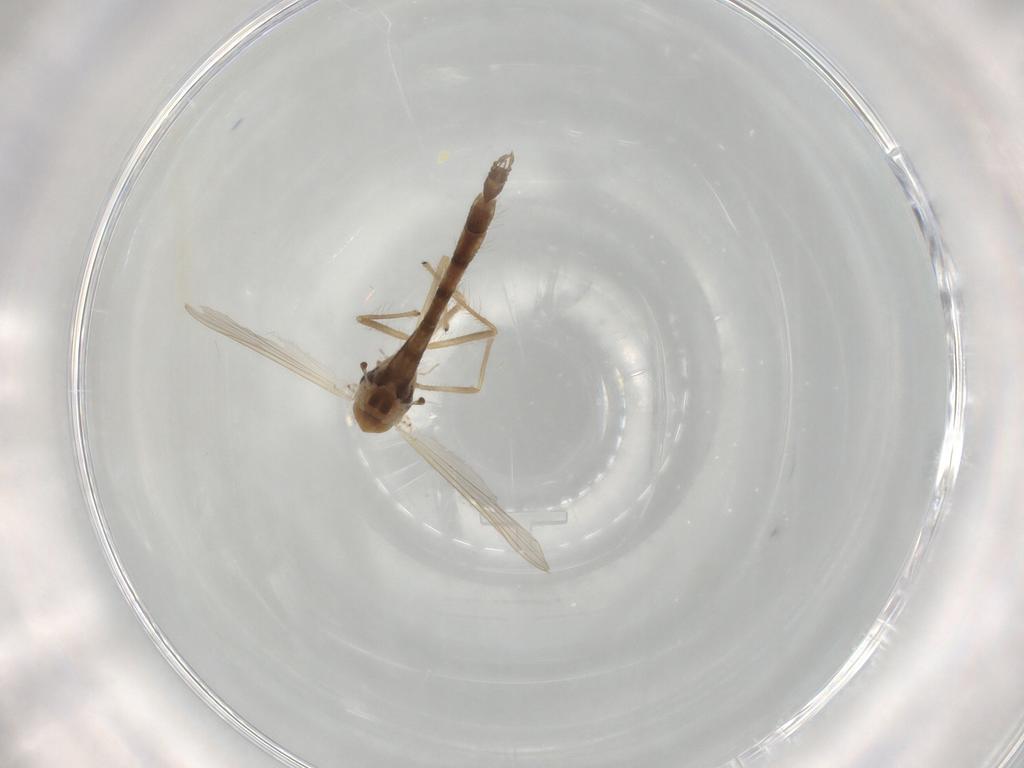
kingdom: Animalia
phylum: Arthropoda
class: Insecta
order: Diptera
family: Chironomidae
